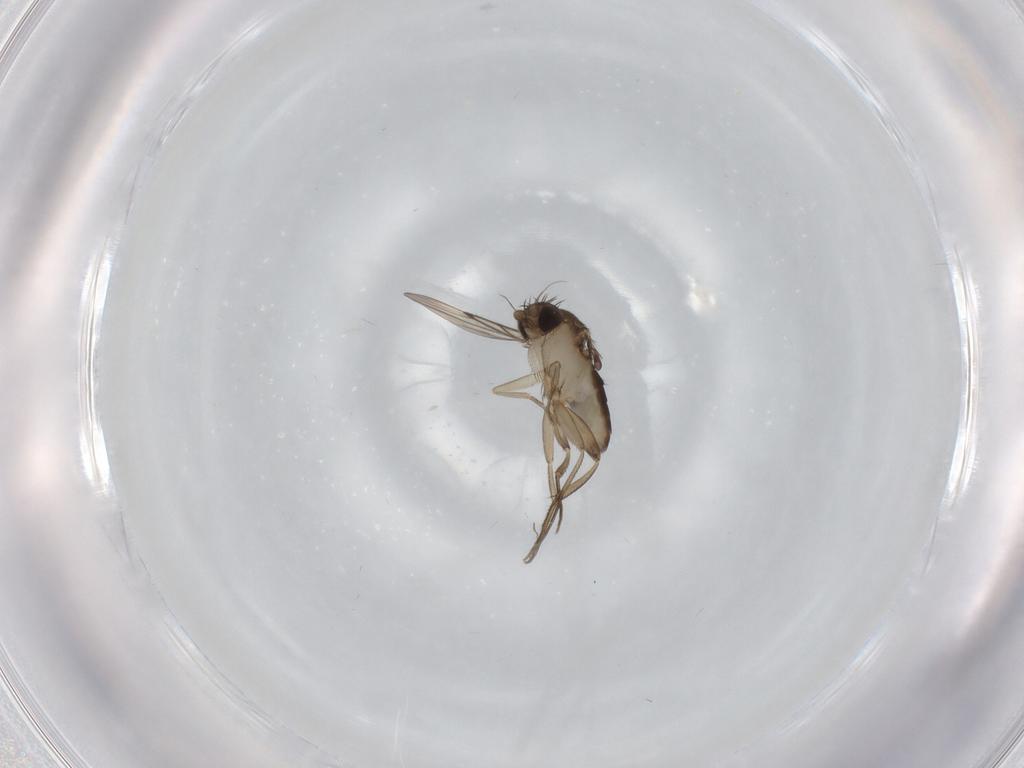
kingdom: Animalia
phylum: Arthropoda
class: Insecta
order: Diptera
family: Phoridae
